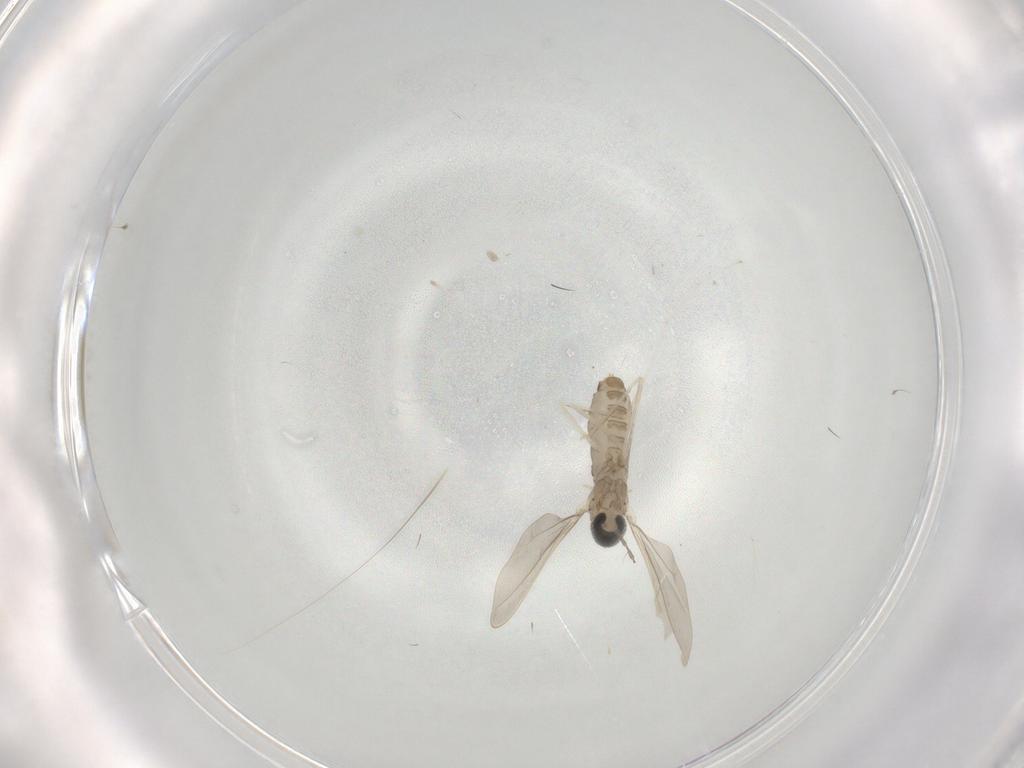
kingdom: Animalia
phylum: Arthropoda
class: Insecta
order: Diptera
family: Cecidomyiidae
